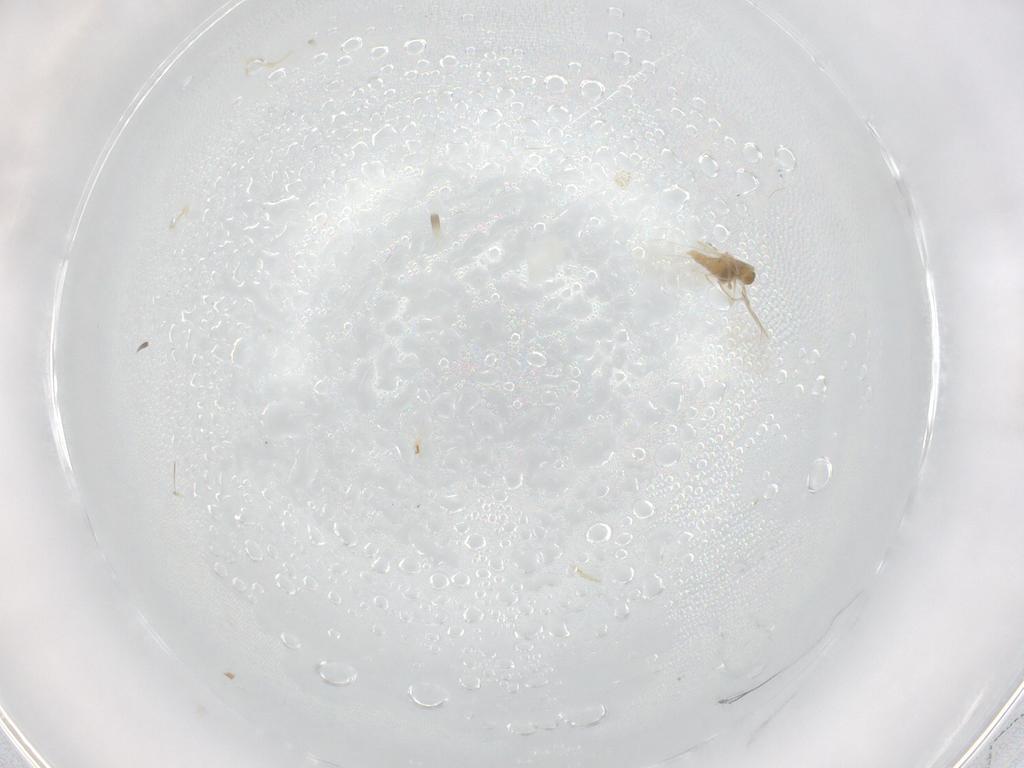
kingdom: Animalia
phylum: Arthropoda
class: Insecta
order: Diptera
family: Cecidomyiidae
